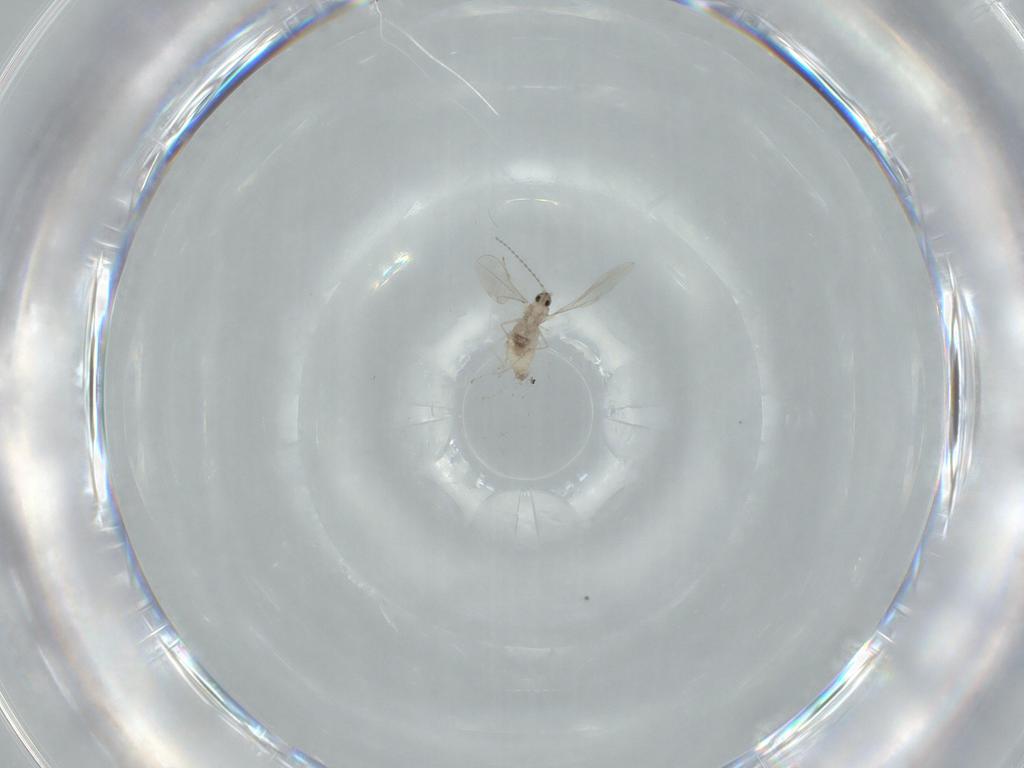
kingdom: Animalia
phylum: Arthropoda
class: Insecta
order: Diptera
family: Cecidomyiidae
